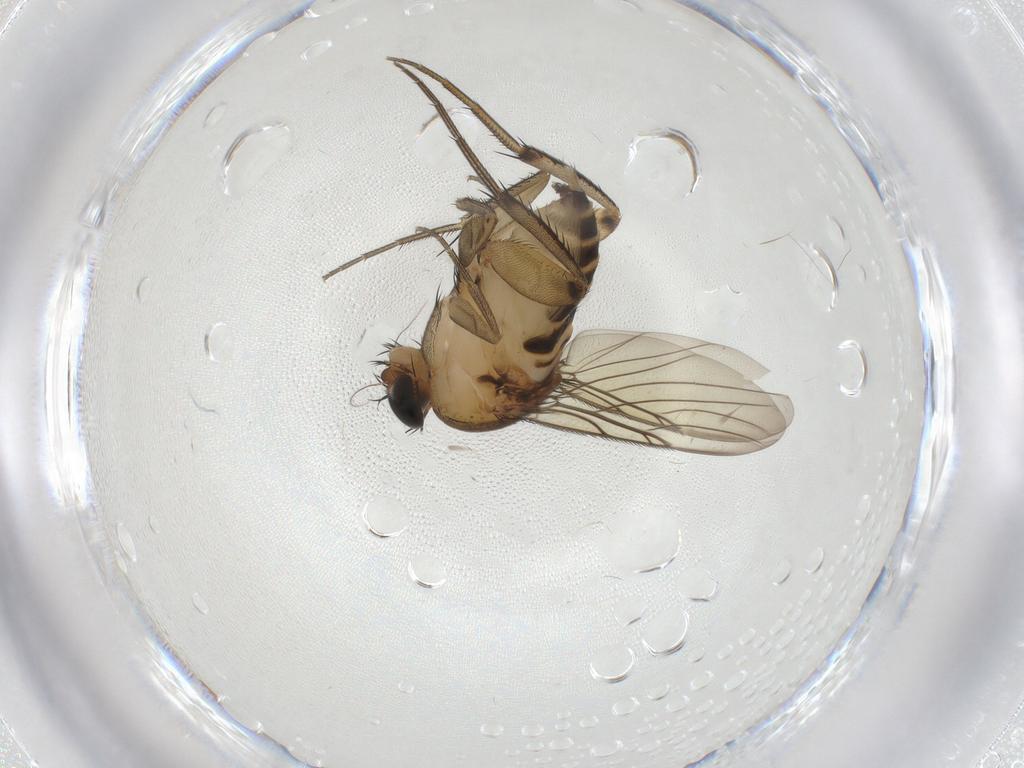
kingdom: Animalia
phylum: Arthropoda
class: Insecta
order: Diptera
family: Phoridae
